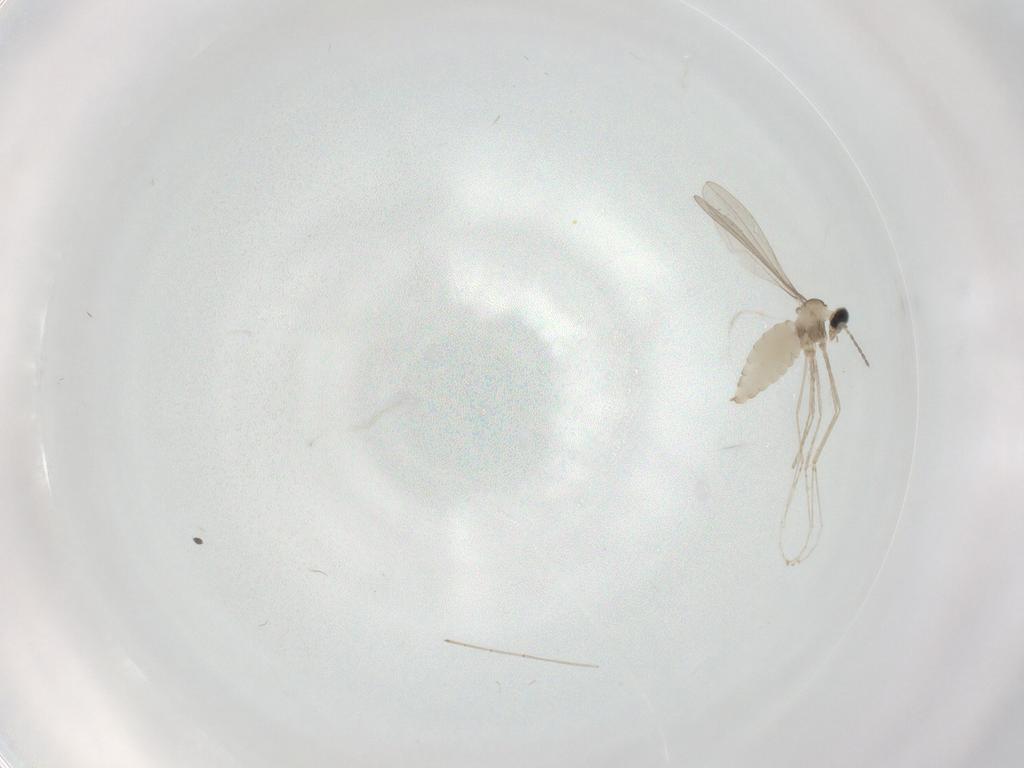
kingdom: Animalia
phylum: Arthropoda
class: Insecta
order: Diptera
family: Cecidomyiidae
